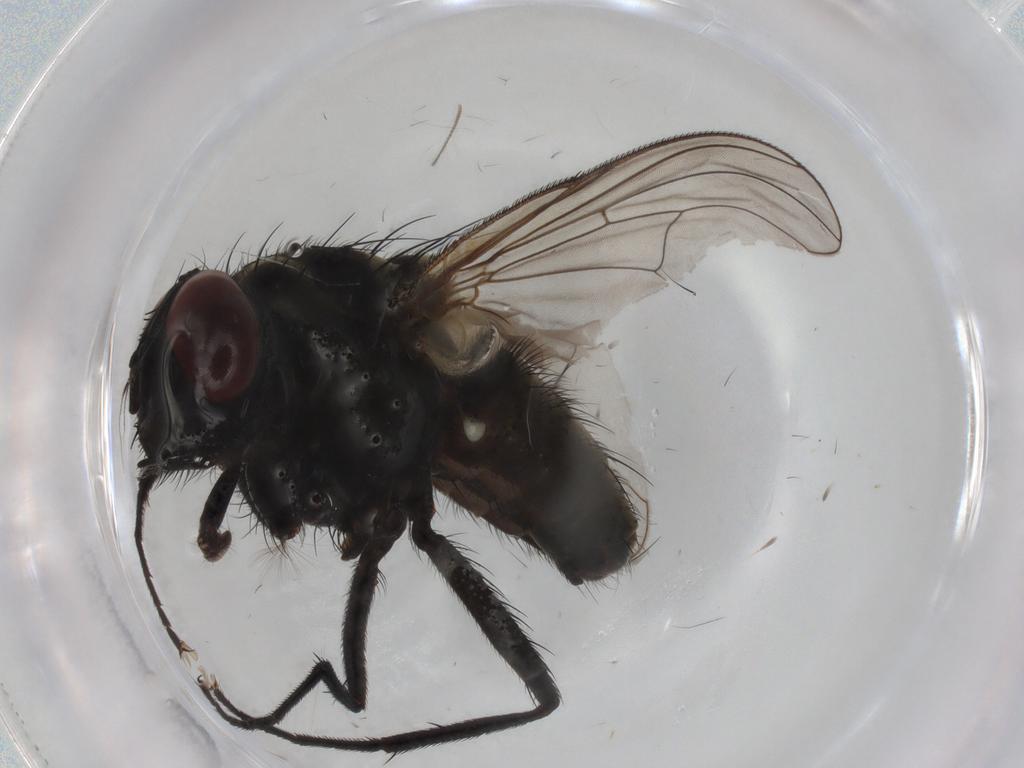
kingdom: Animalia
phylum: Arthropoda
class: Insecta
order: Diptera
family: Muscidae
